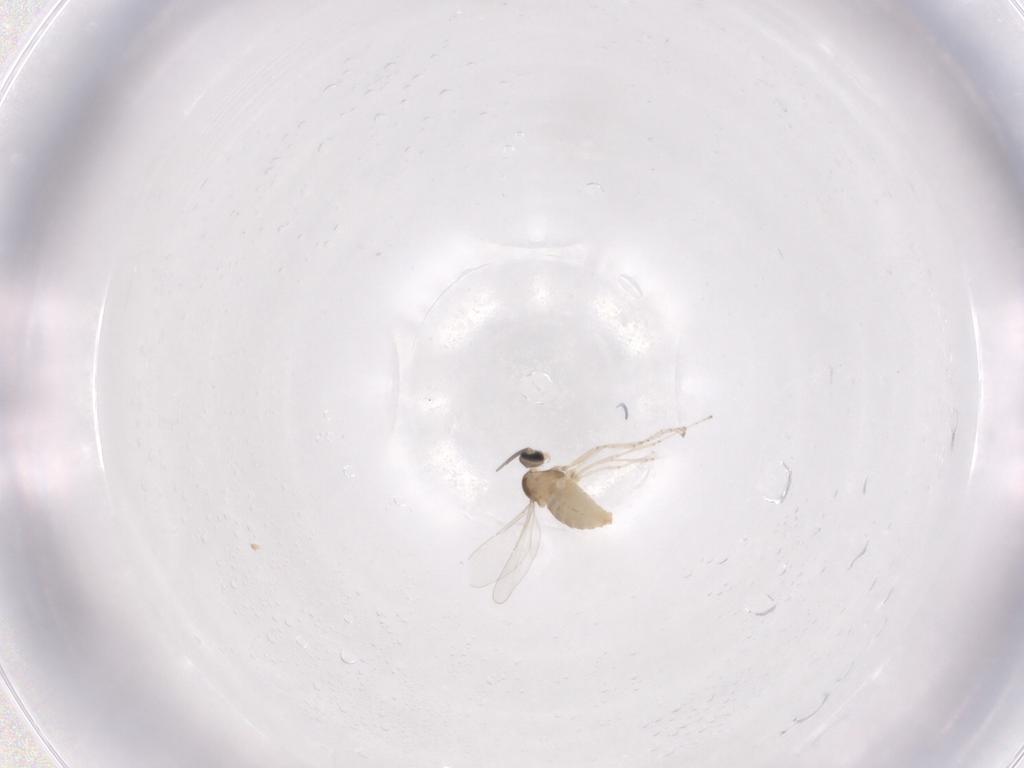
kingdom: Animalia
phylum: Arthropoda
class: Insecta
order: Diptera
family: Cecidomyiidae
